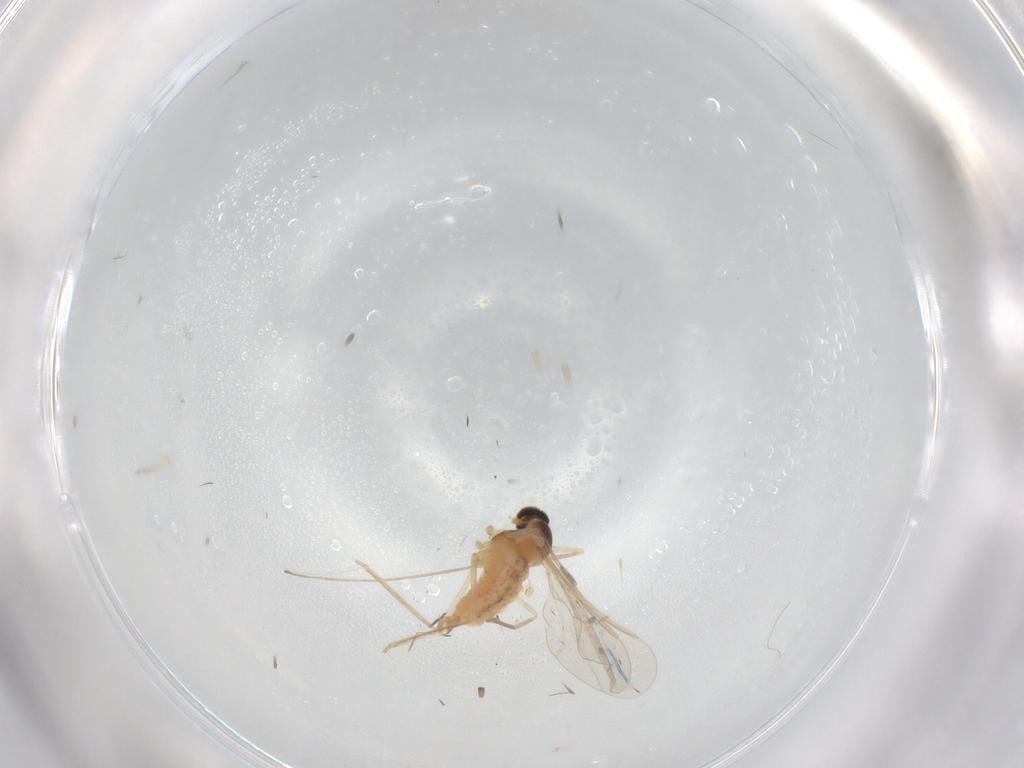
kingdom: Animalia
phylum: Arthropoda
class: Insecta
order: Diptera
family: Cecidomyiidae
